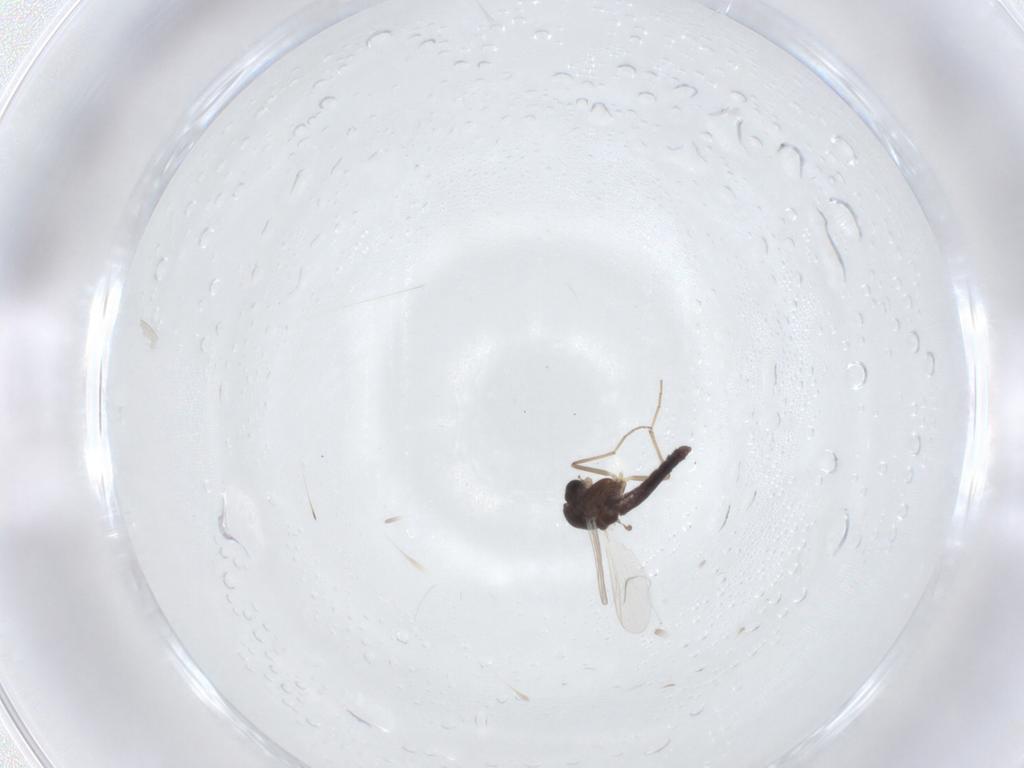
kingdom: Animalia
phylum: Arthropoda
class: Insecta
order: Diptera
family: Chironomidae
